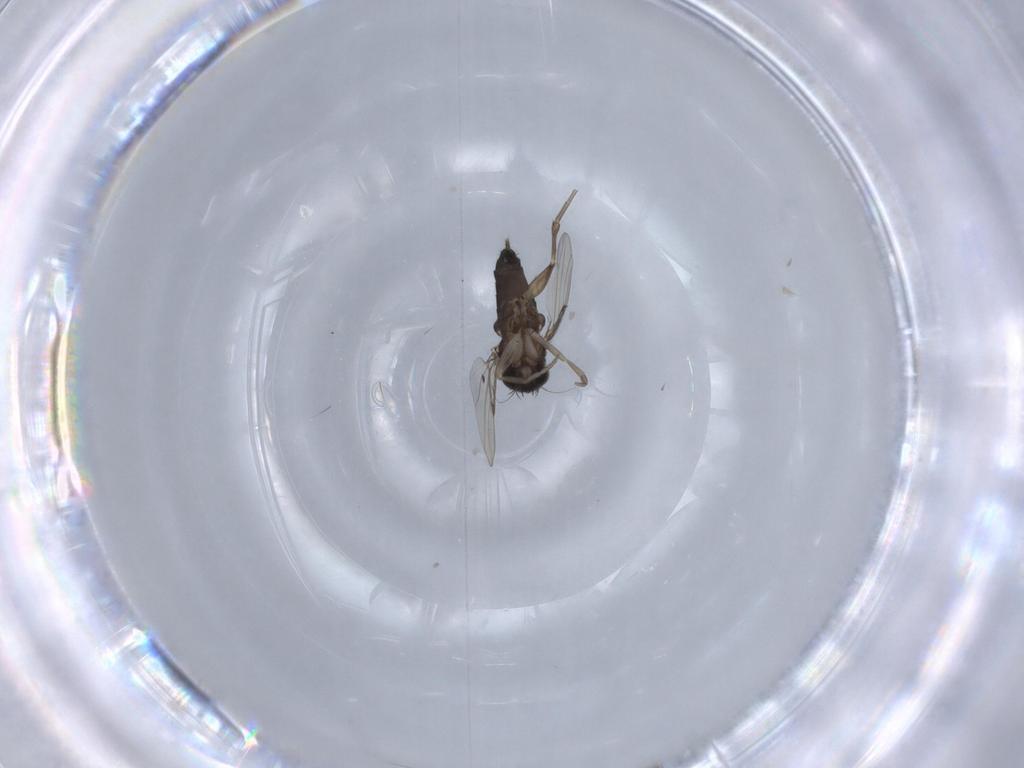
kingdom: Animalia
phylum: Arthropoda
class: Insecta
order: Diptera
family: Phoridae
